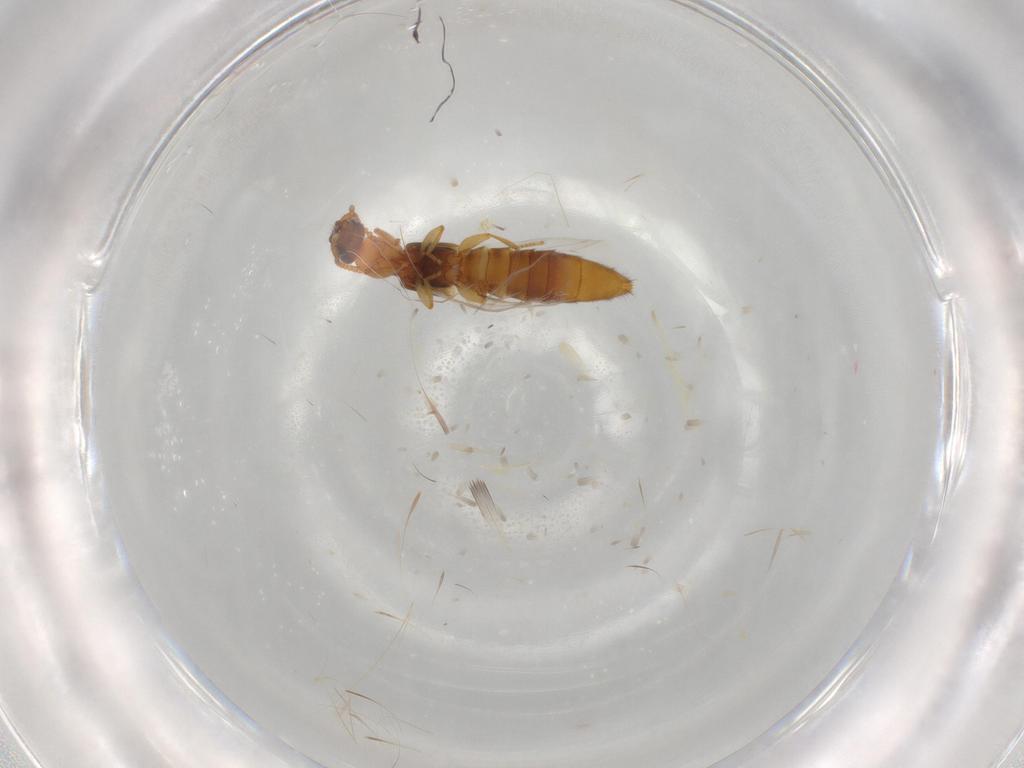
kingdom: Animalia
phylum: Arthropoda
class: Insecta
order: Coleoptera
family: Staphylinidae
